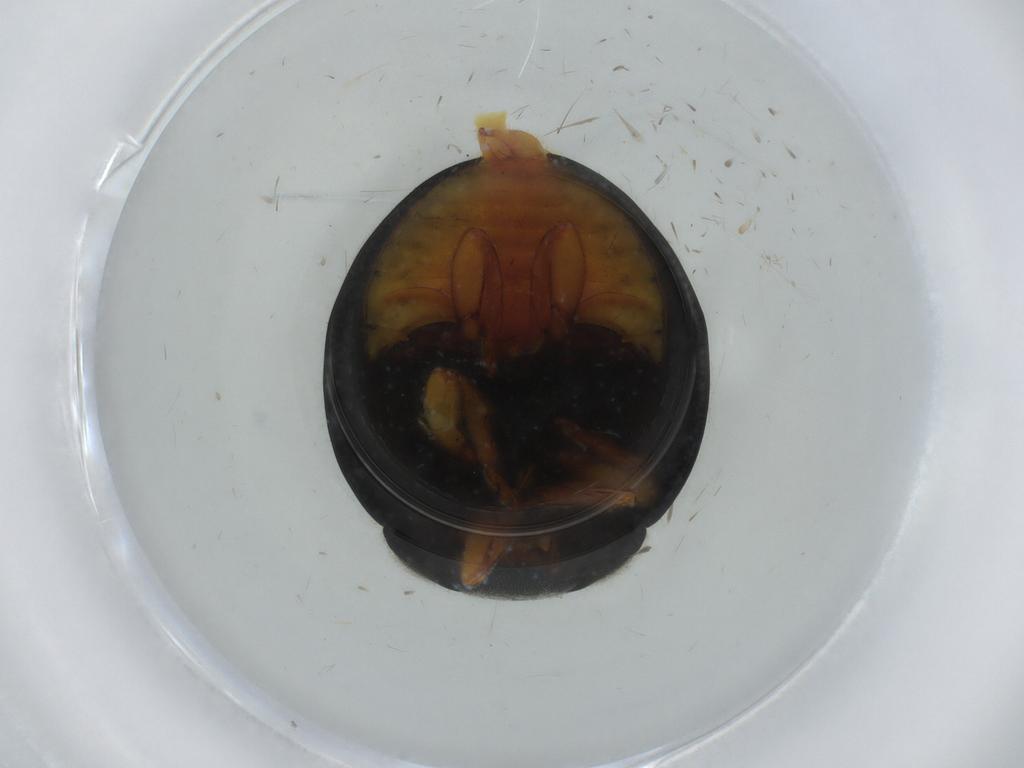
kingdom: Animalia
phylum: Arthropoda
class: Insecta
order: Coleoptera
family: Coccinellidae
